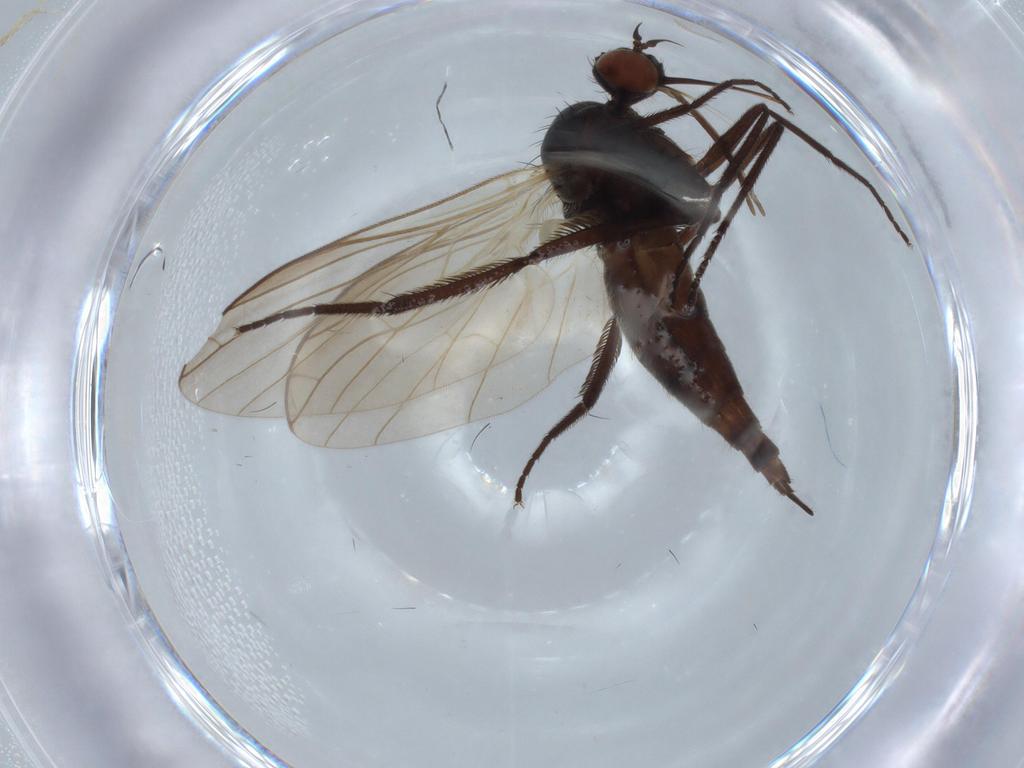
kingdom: Animalia
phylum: Arthropoda
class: Insecta
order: Diptera
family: Empididae
